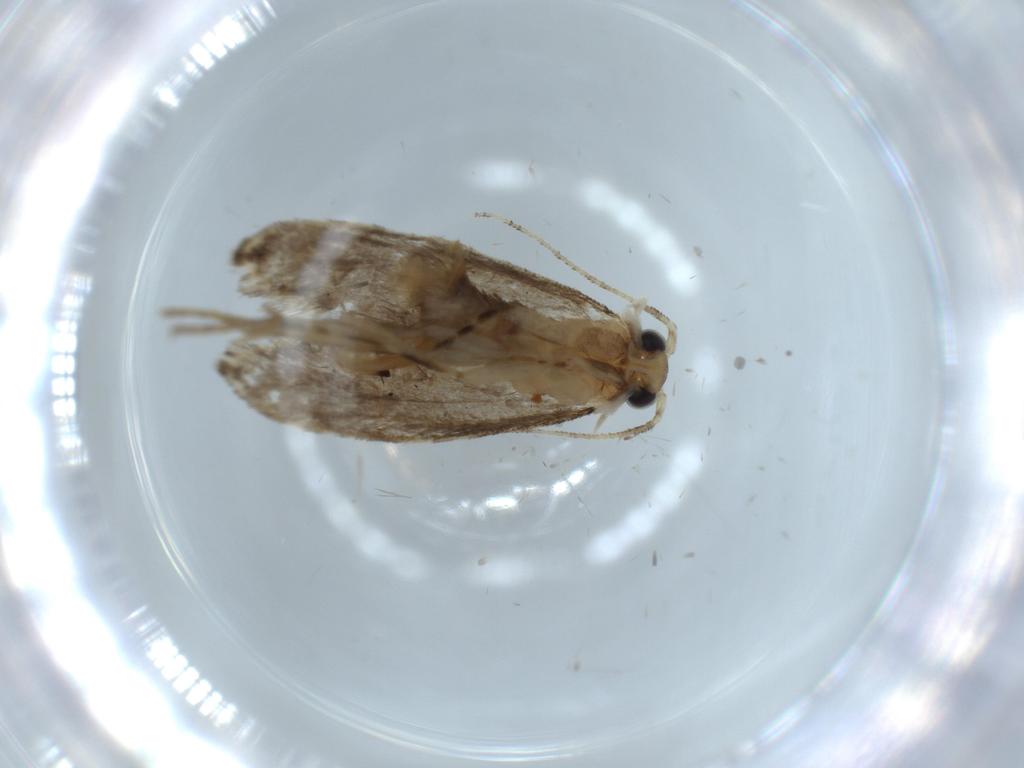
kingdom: Animalia
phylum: Arthropoda
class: Insecta
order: Lepidoptera
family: Tineidae
